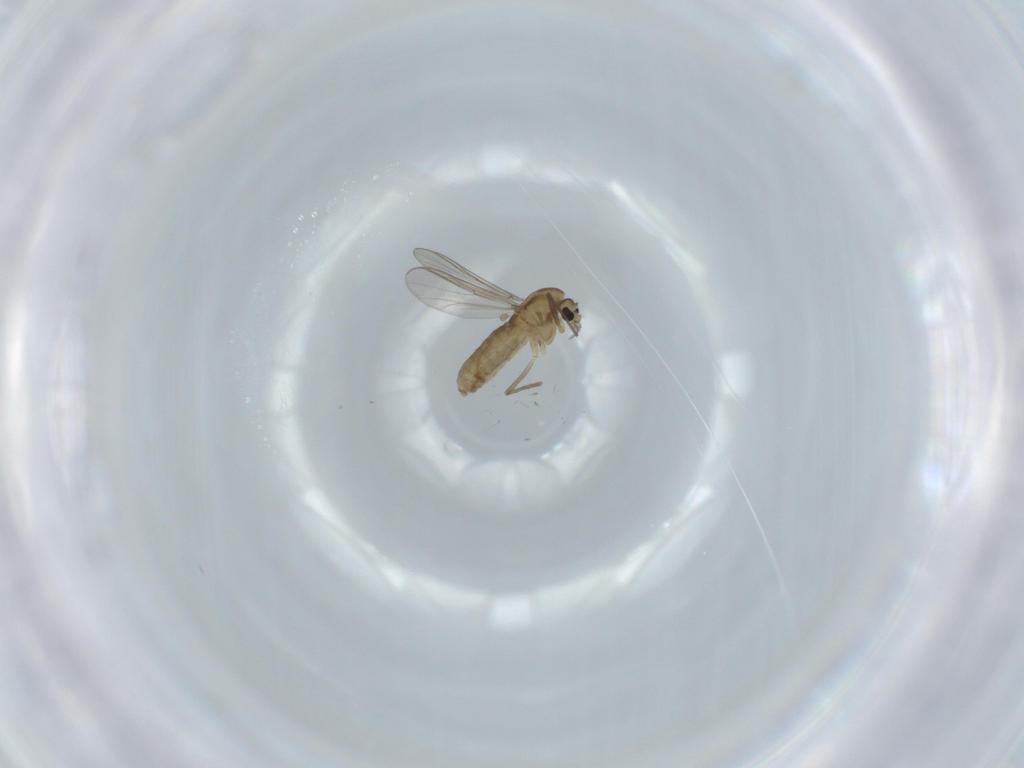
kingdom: Animalia
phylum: Arthropoda
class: Insecta
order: Diptera
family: Chironomidae
